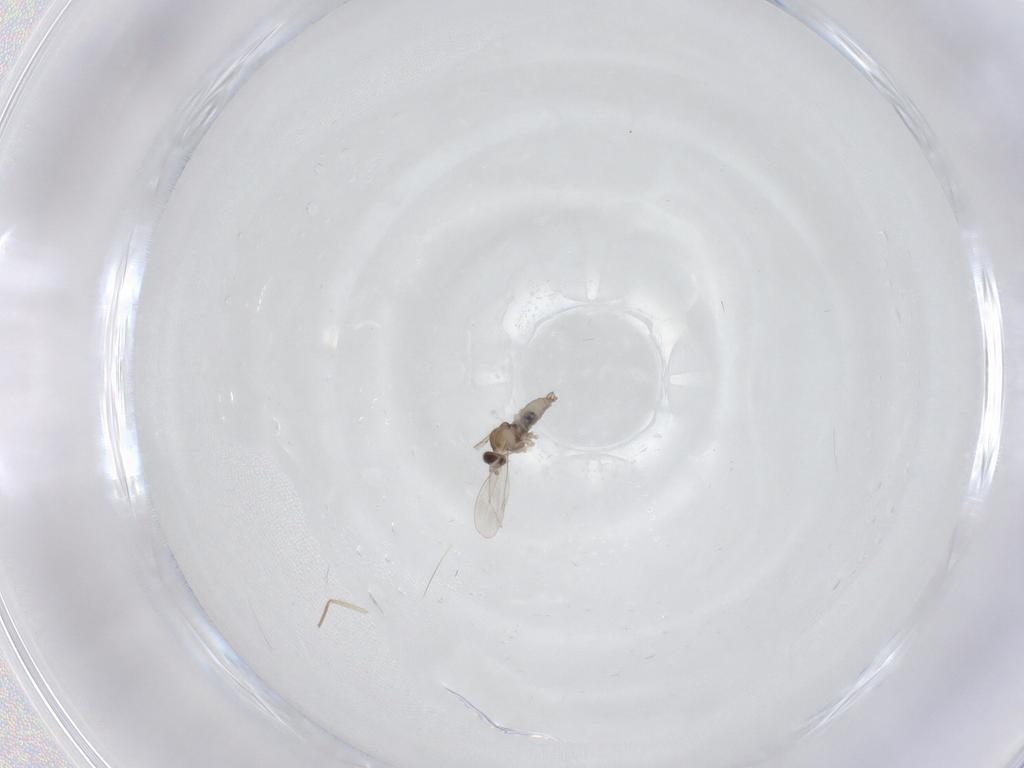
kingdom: Animalia
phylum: Arthropoda
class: Insecta
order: Diptera
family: Chironomidae
